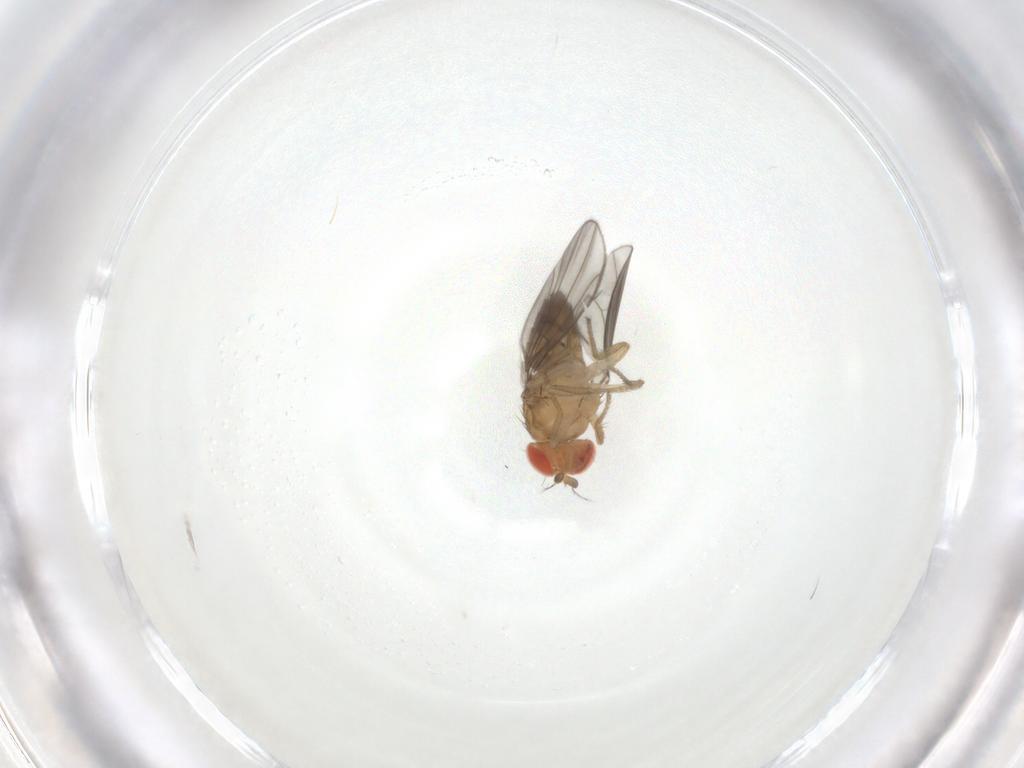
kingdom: Animalia
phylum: Arthropoda
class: Insecta
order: Diptera
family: Drosophilidae
